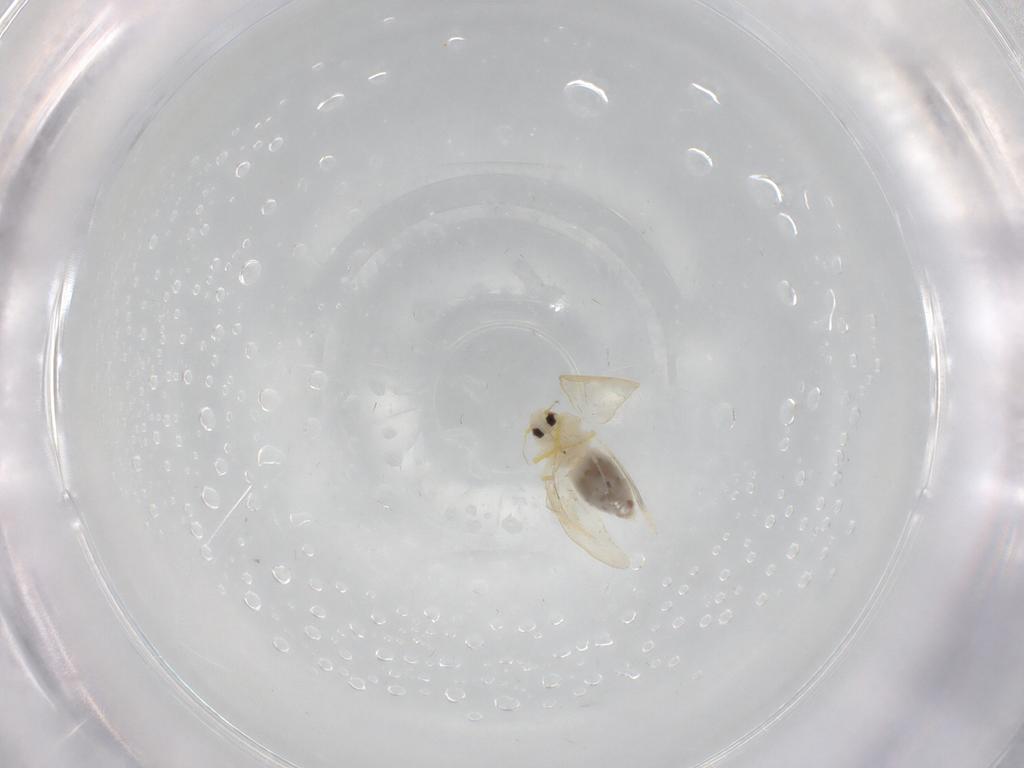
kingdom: Animalia
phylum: Arthropoda
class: Insecta
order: Hemiptera
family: Aleyrodidae
